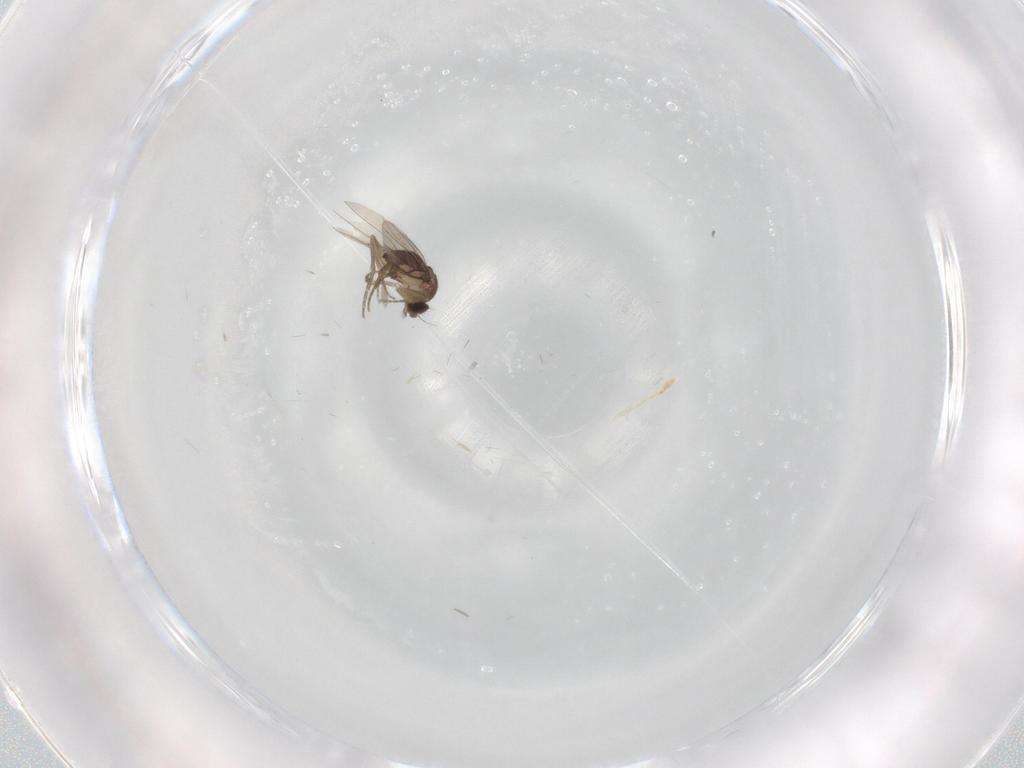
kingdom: Animalia
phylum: Arthropoda
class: Insecta
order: Diptera
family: Phoridae
